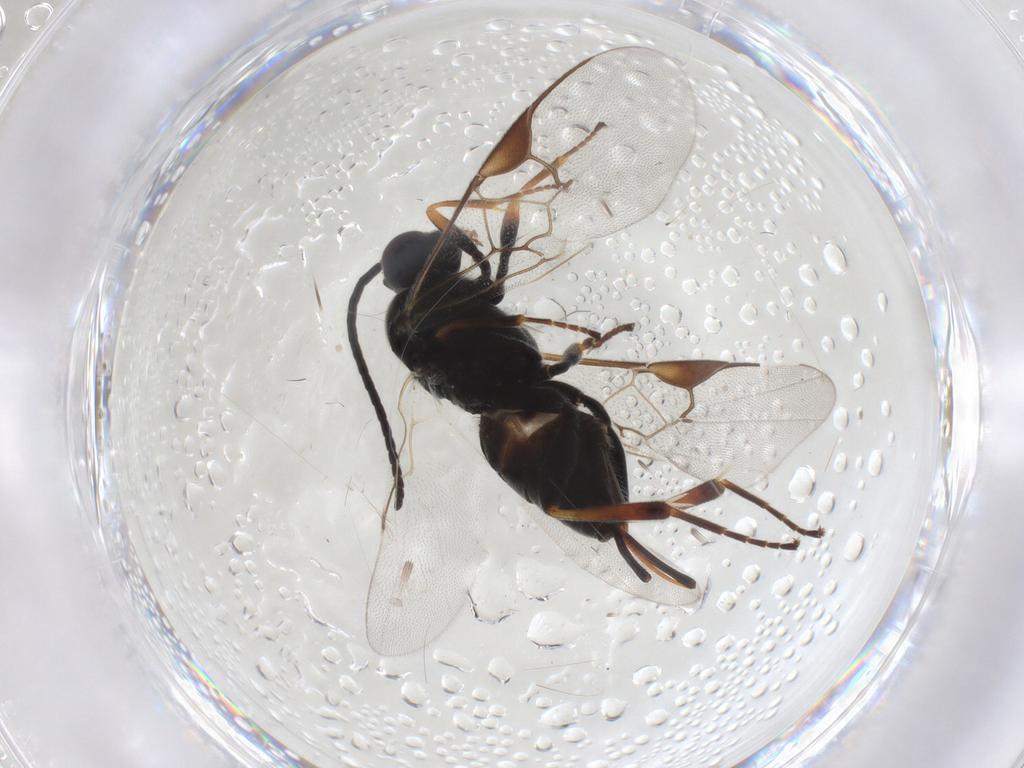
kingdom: Animalia
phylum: Arthropoda
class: Insecta
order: Hymenoptera
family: Braconidae
